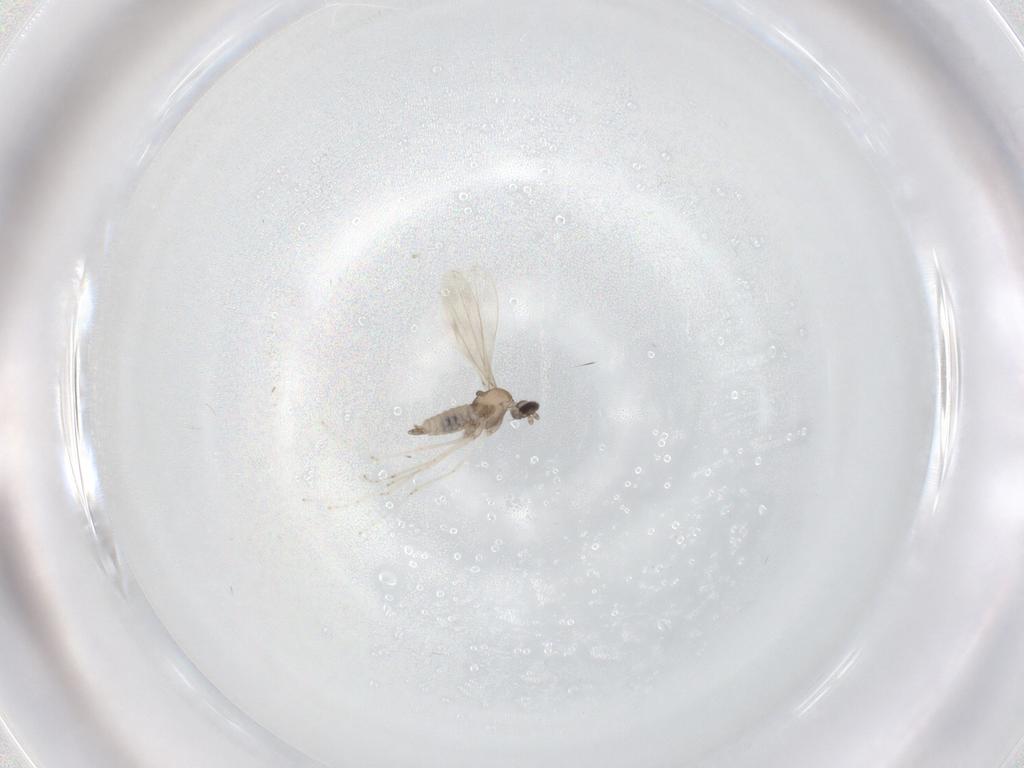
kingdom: Animalia
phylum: Arthropoda
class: Insecta
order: Diptera
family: Cecidomyiidae
